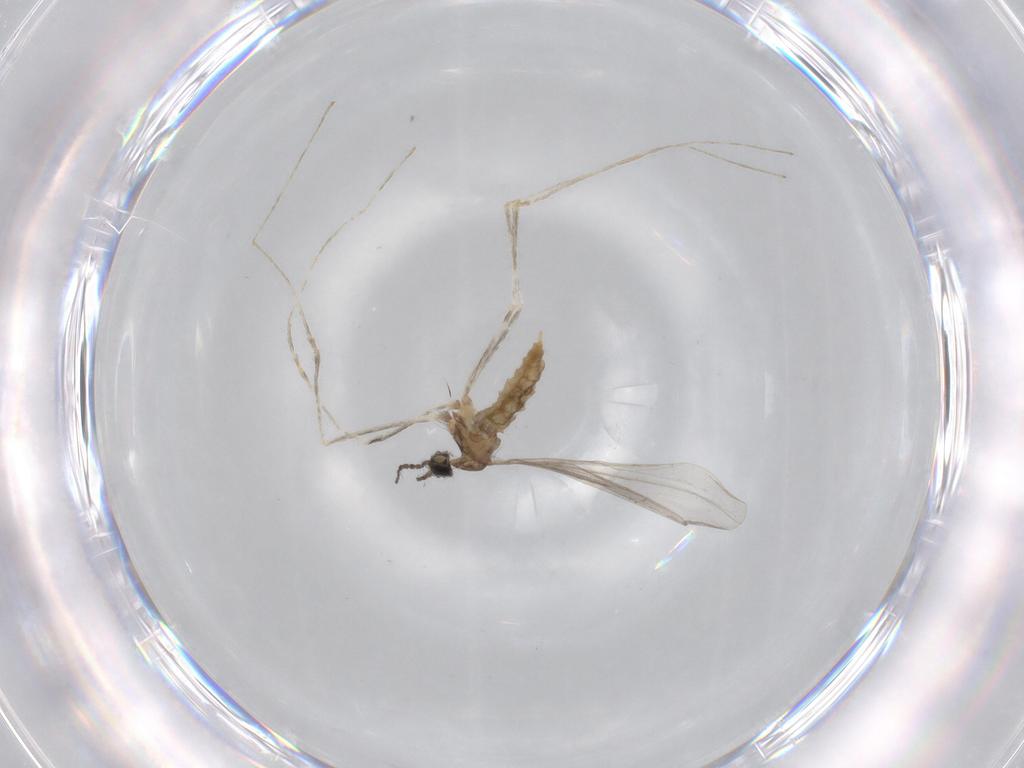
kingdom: Animalia
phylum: Arthropoda
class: Insecta
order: Diptera
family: Cecidomyiidae
